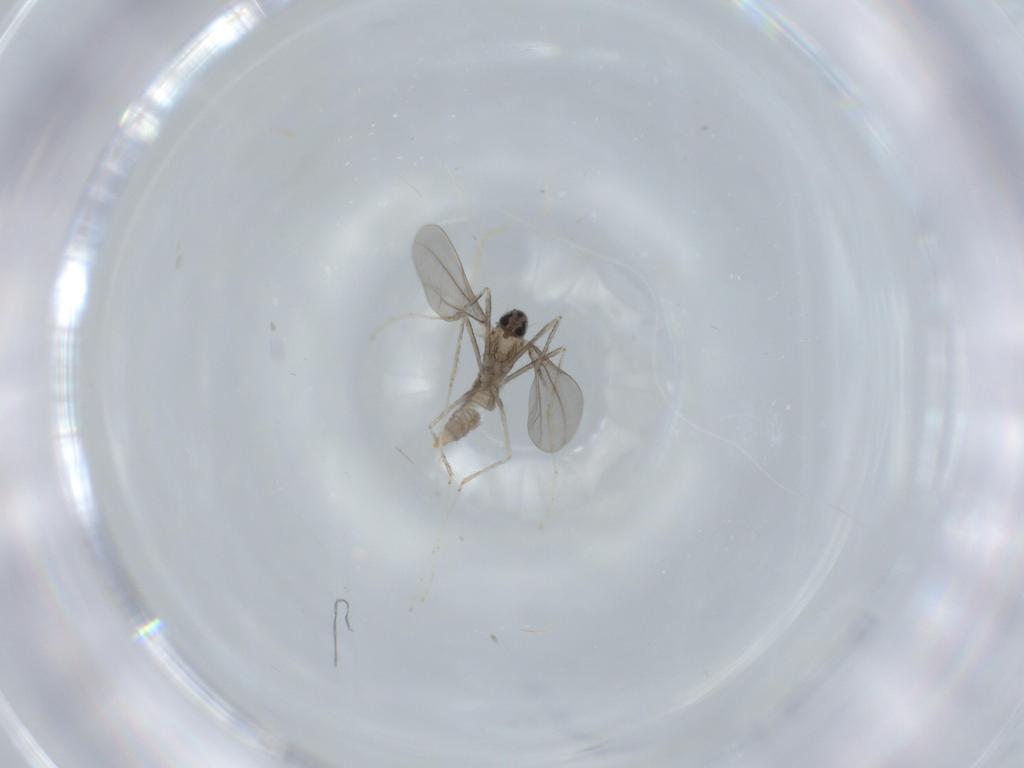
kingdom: Animalia
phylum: Arthropoda
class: Insecta
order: Diptera
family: Cecidomyiidae
